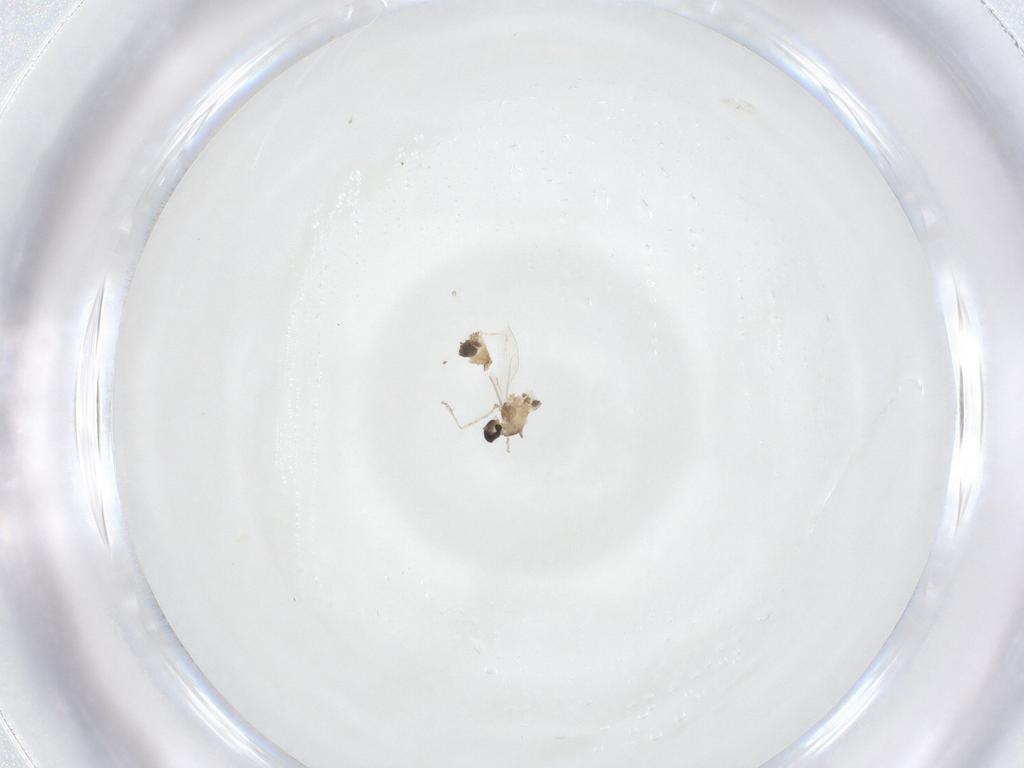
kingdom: Animalia
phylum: Arthropoda
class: Insecta
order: Diptera
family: Cecidomyiidae
